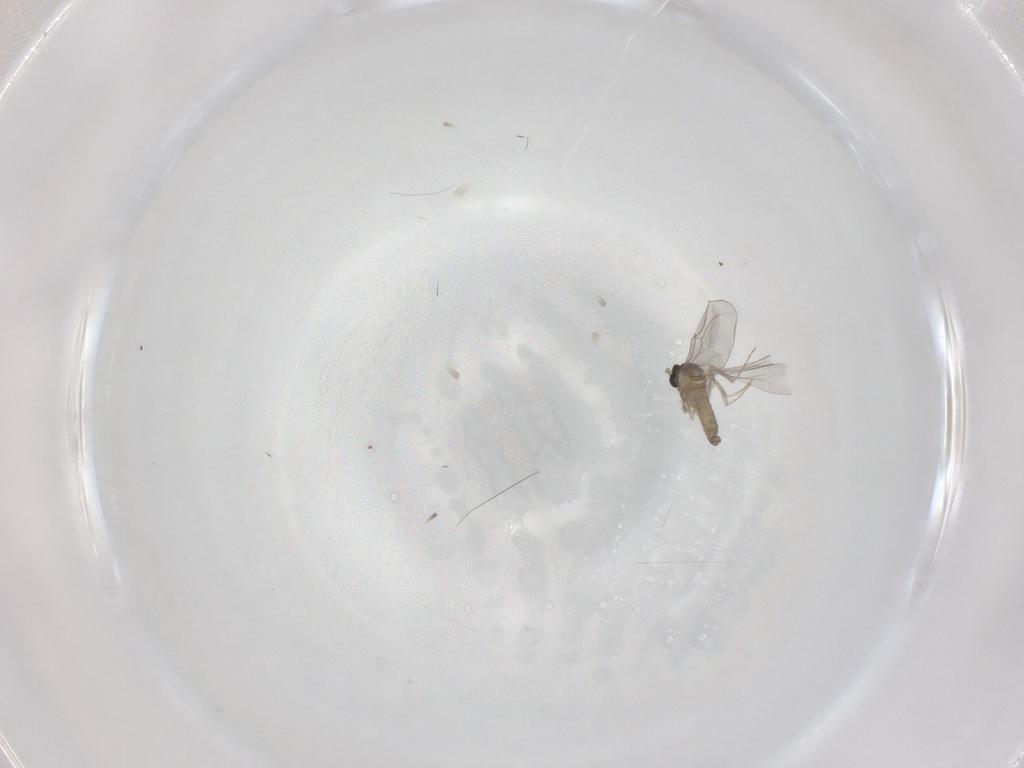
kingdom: Animalia
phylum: Arthropoda
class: Insecta
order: Diptera
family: Cecidomyiidae
